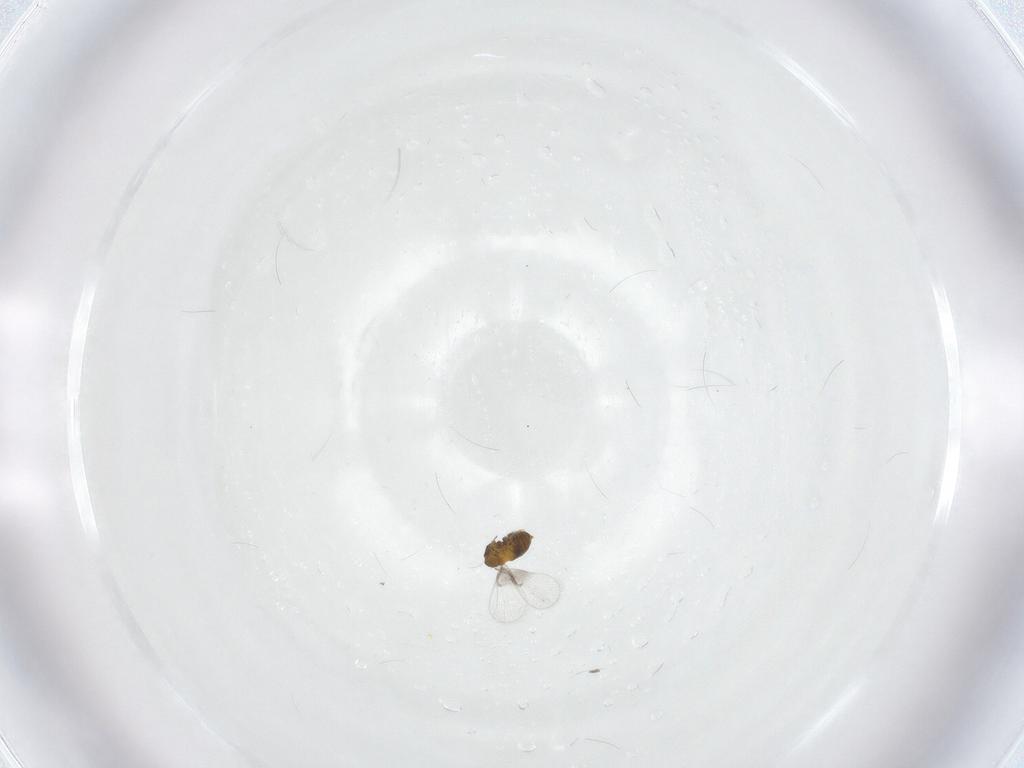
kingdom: Animalia
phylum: Arthropoda
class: Insecta
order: Hymenoptera
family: Trichogrammatidae
